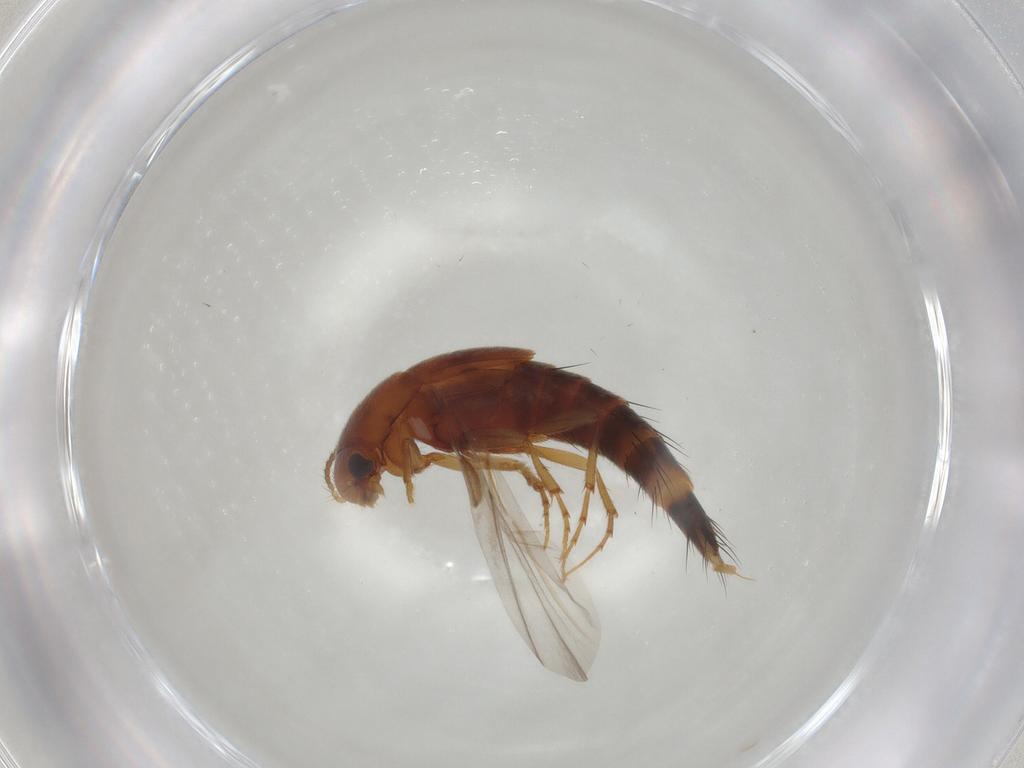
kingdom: Animalia
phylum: Arthropoda
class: Insecta
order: Coleoptera
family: Staphylinidae
